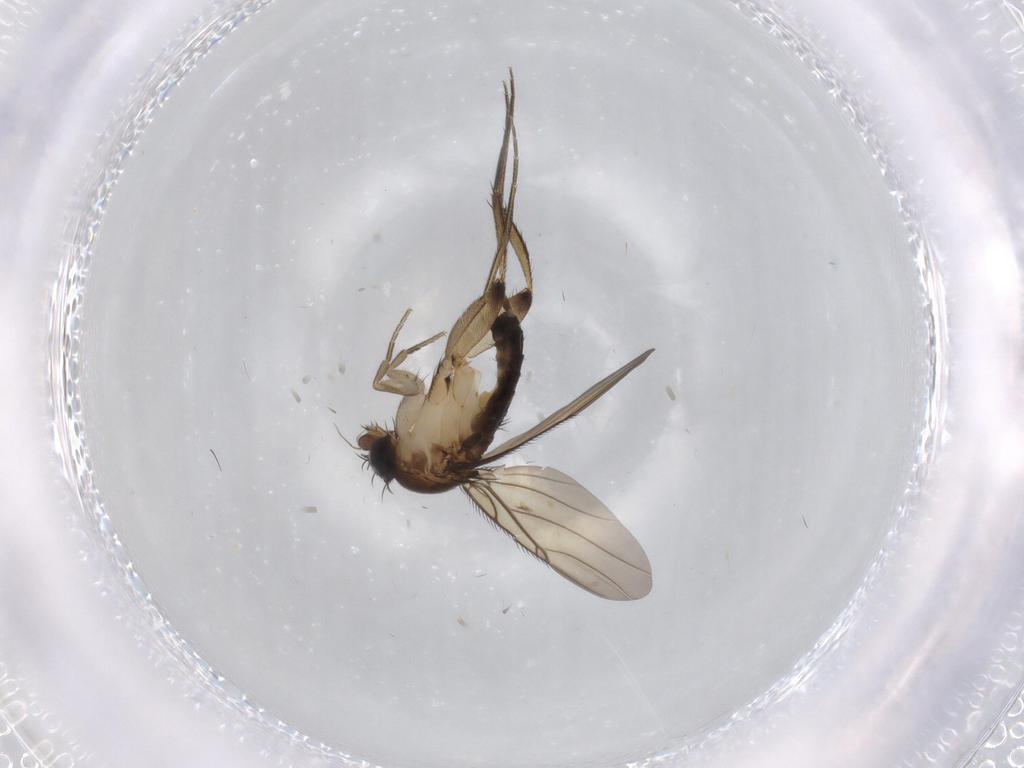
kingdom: Animalia
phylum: Arthropoda
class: Insecta
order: Diptera
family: Phoridae
